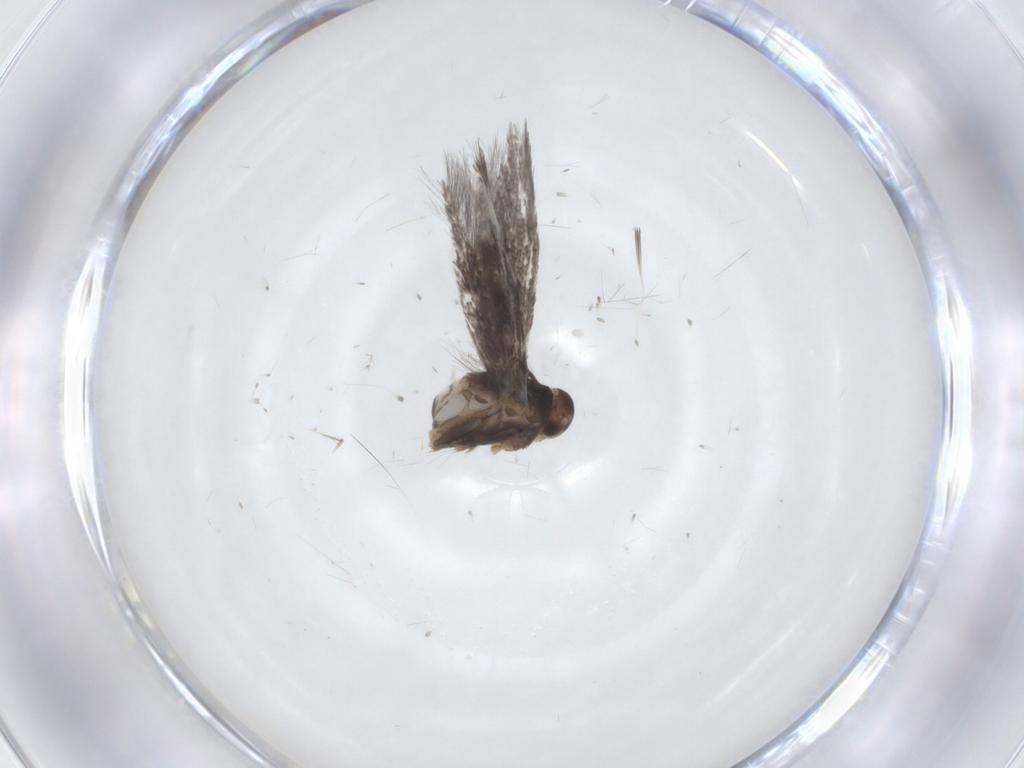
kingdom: Animalia
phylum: Arthropoda
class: Insecta
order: Lepidoptera
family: Elachistidae
